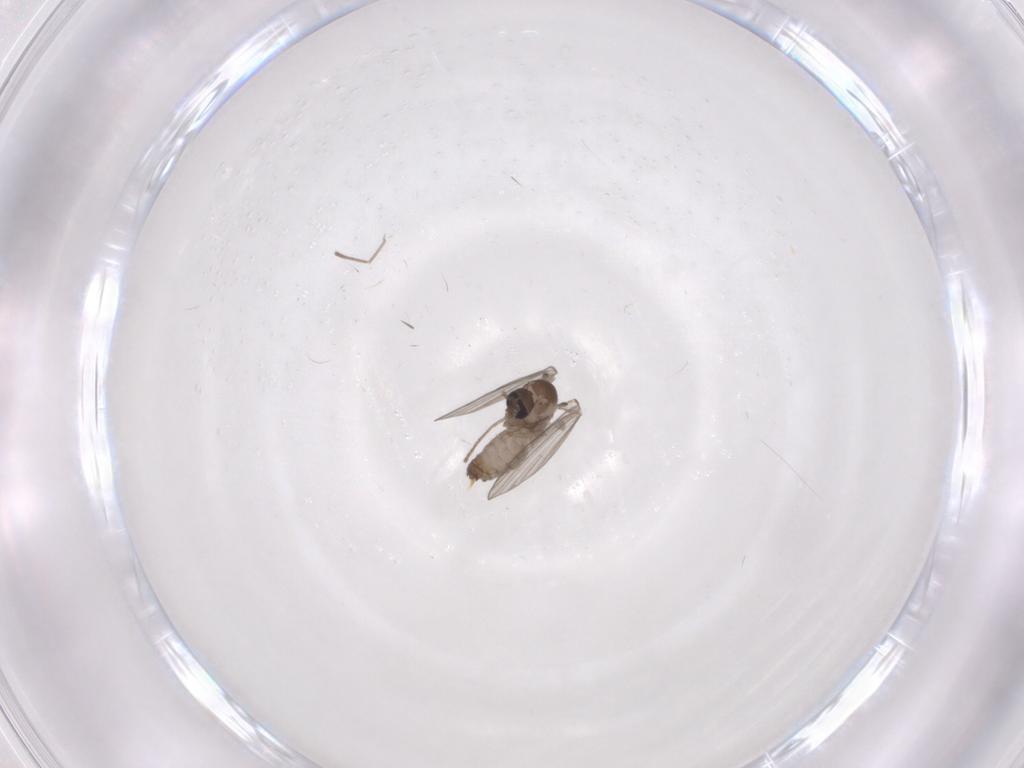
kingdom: Animalia
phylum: Arthropoda
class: Insecta
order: Diptera
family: Psychodidae
